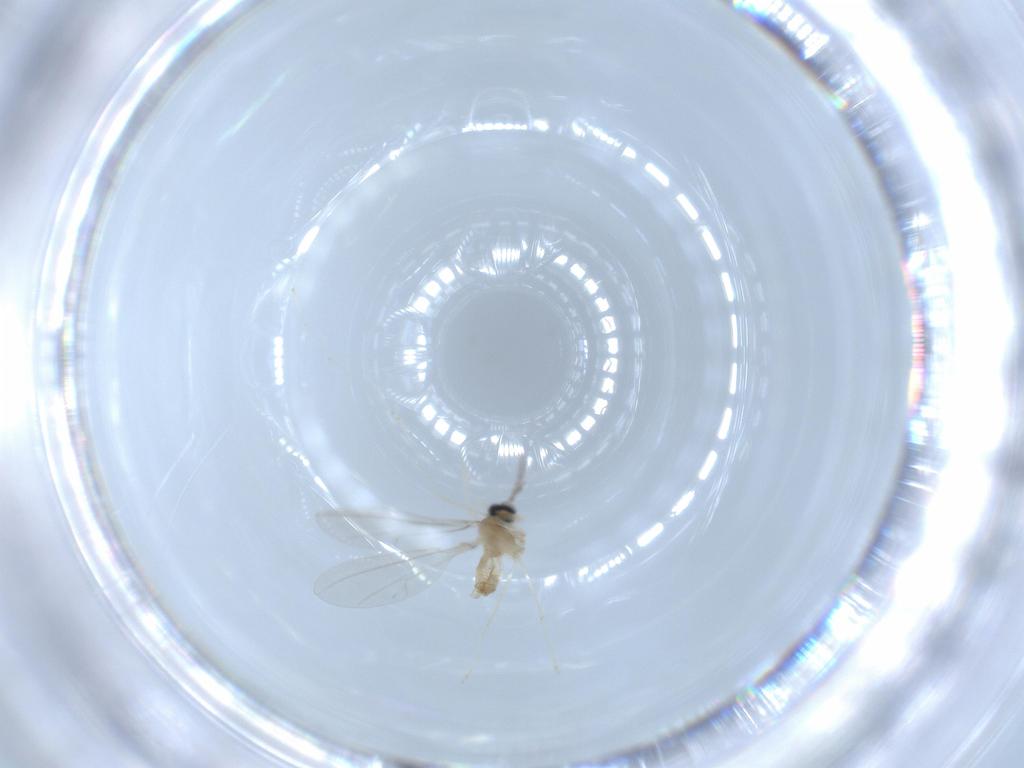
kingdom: Animalia
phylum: Arthropoda
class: Insecta
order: Diptera
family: Cecidomyiidae
